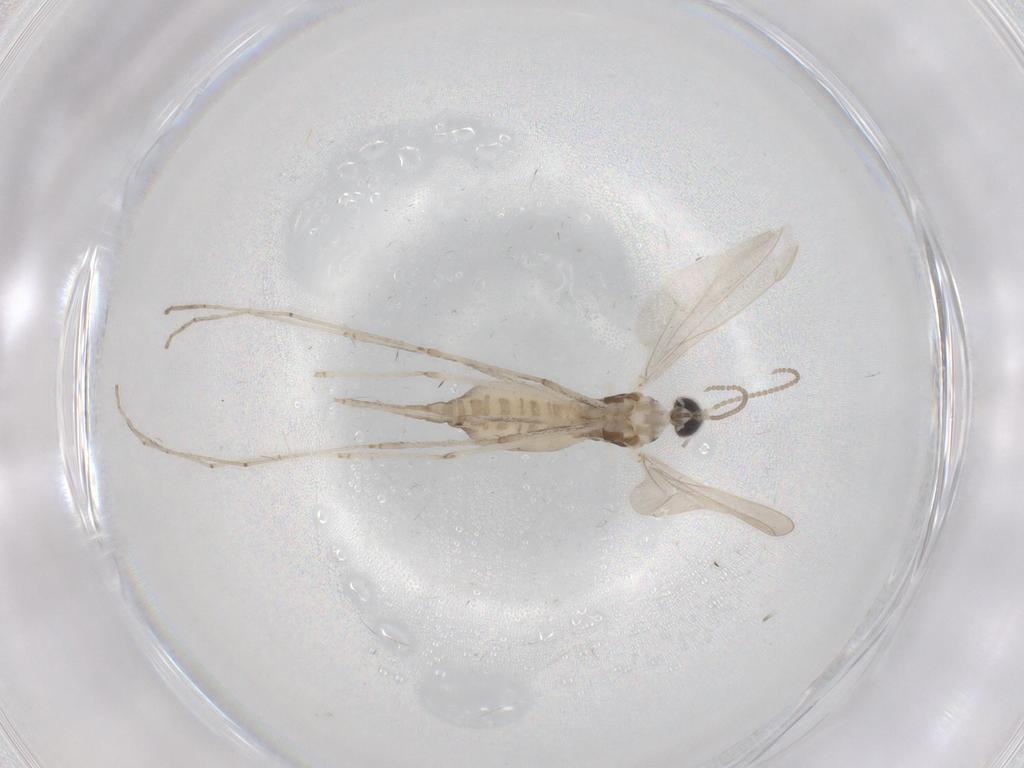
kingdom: Animalia
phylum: Arthropoda
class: Insecta
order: Diptera
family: Cecidomyiidae
